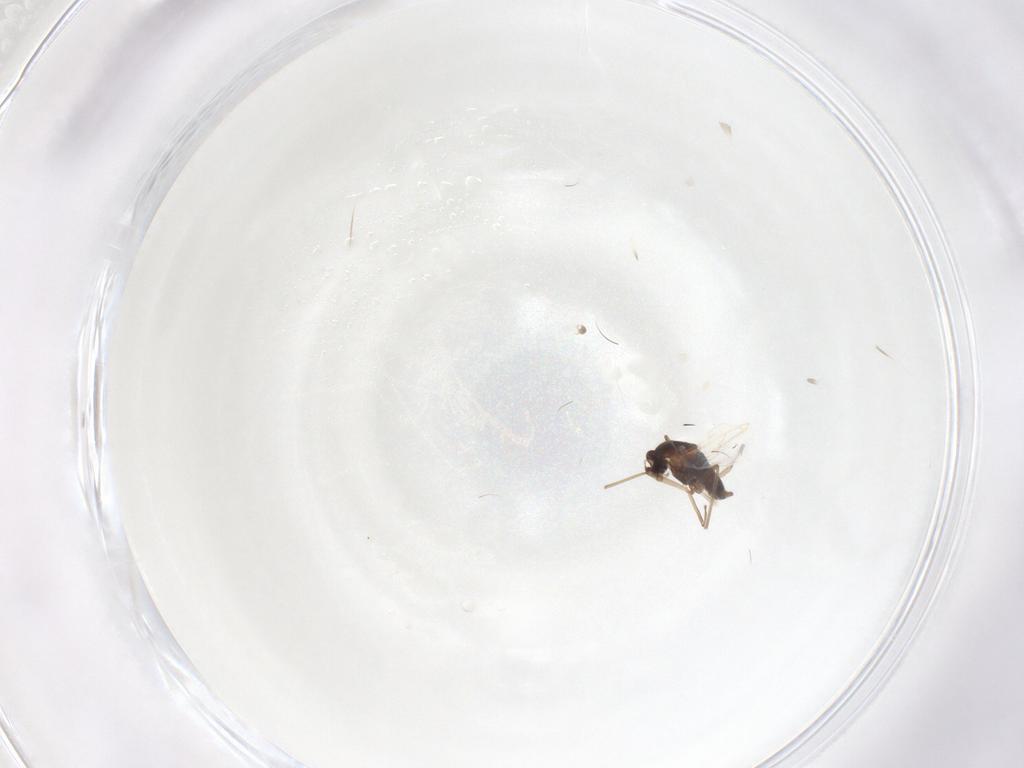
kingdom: Animalia
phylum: Arthropoda
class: Insecta
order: Diptera
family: Cecidomyiidae
